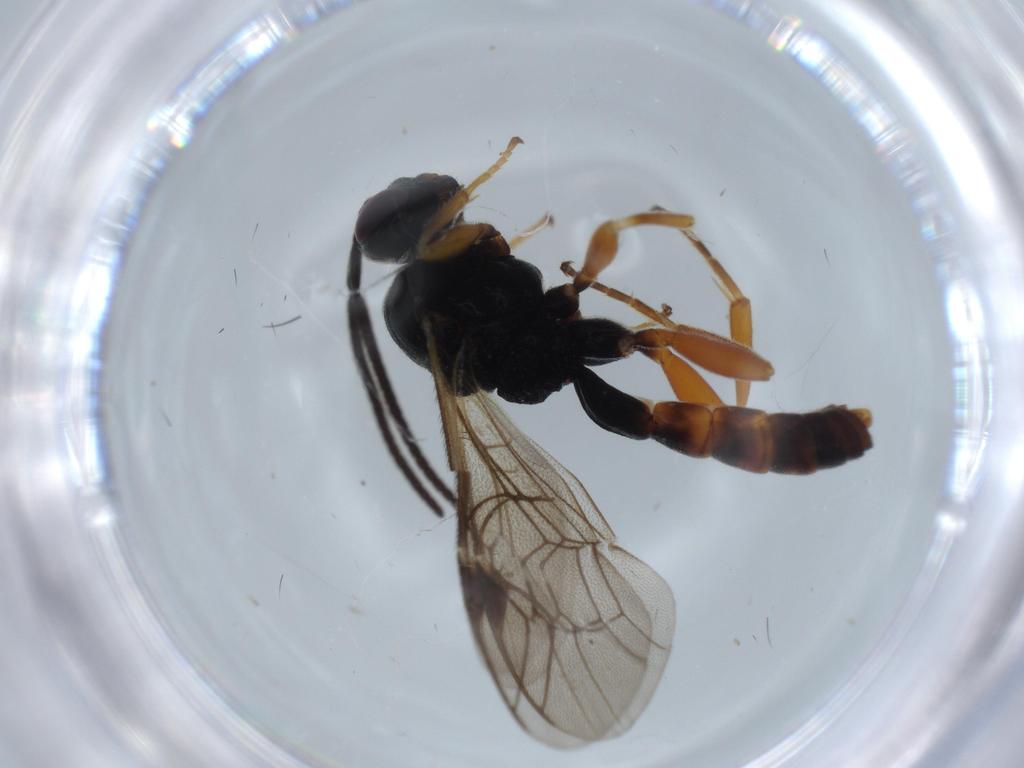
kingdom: Animalia
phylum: Arthropoda
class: Insecta
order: Hymenoptera
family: Ichneumonidae
